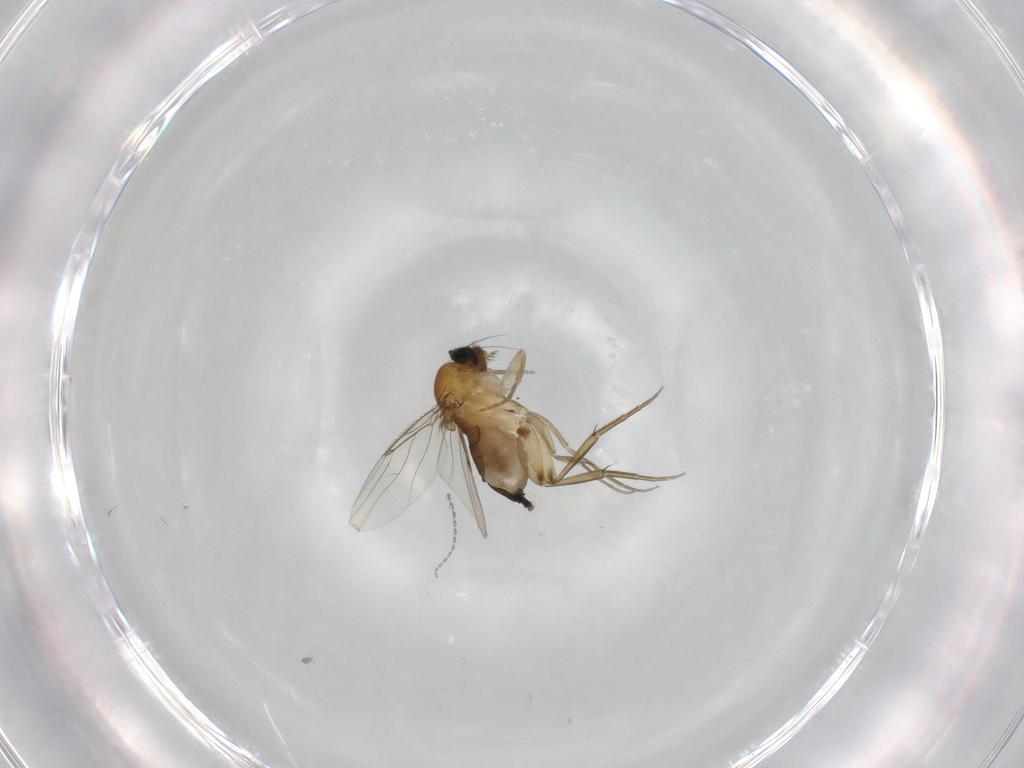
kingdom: Animalia
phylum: Arthropoda
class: Insecta
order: Diptera
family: Phoridae
